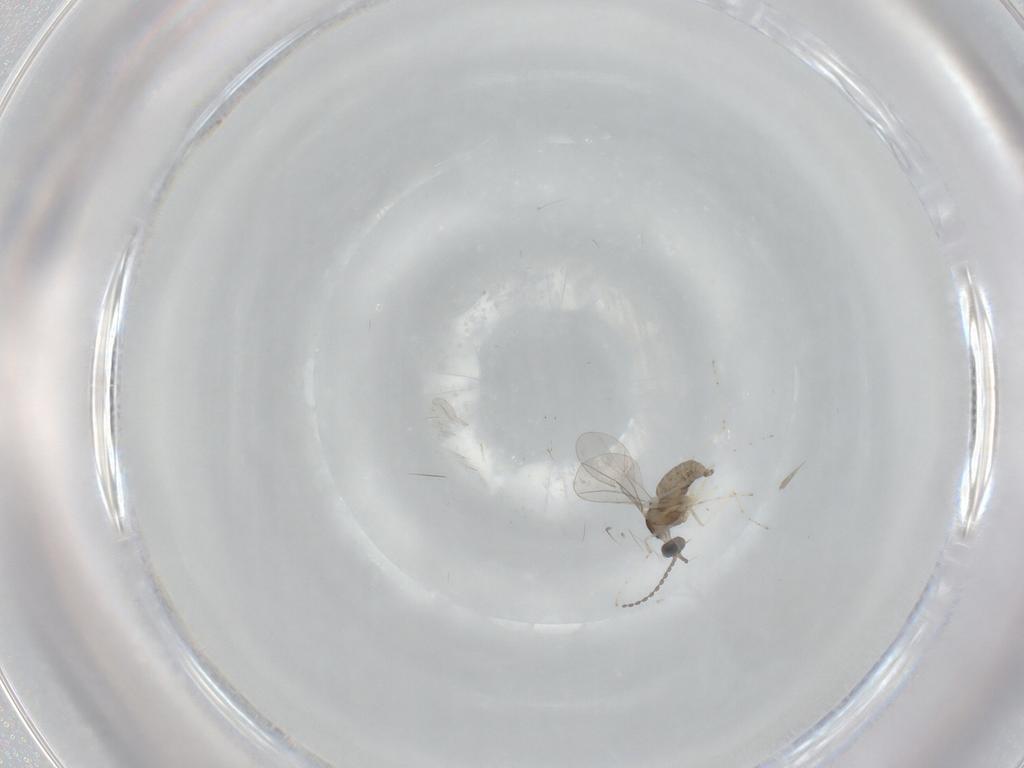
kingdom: Animalia
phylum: Arthropoda
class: Insecta
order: Diptera
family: Cecidomyiidae
